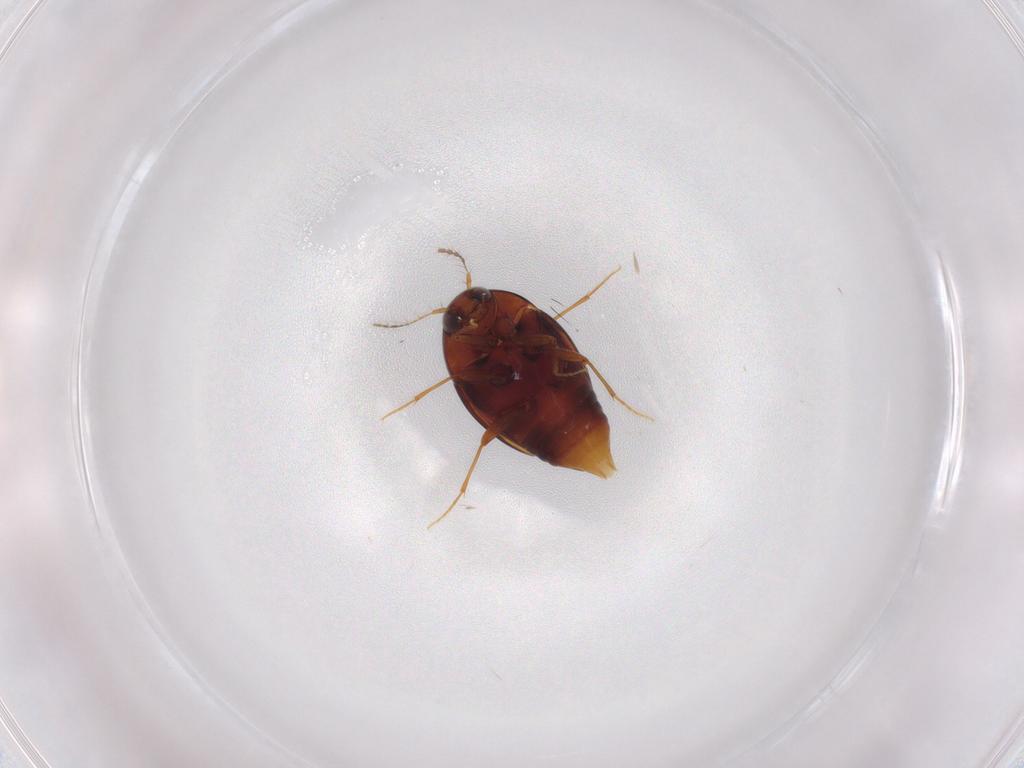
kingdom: Animalia
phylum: Arthropoda
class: Insecta
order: Coleoptera
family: Staphylinidae
